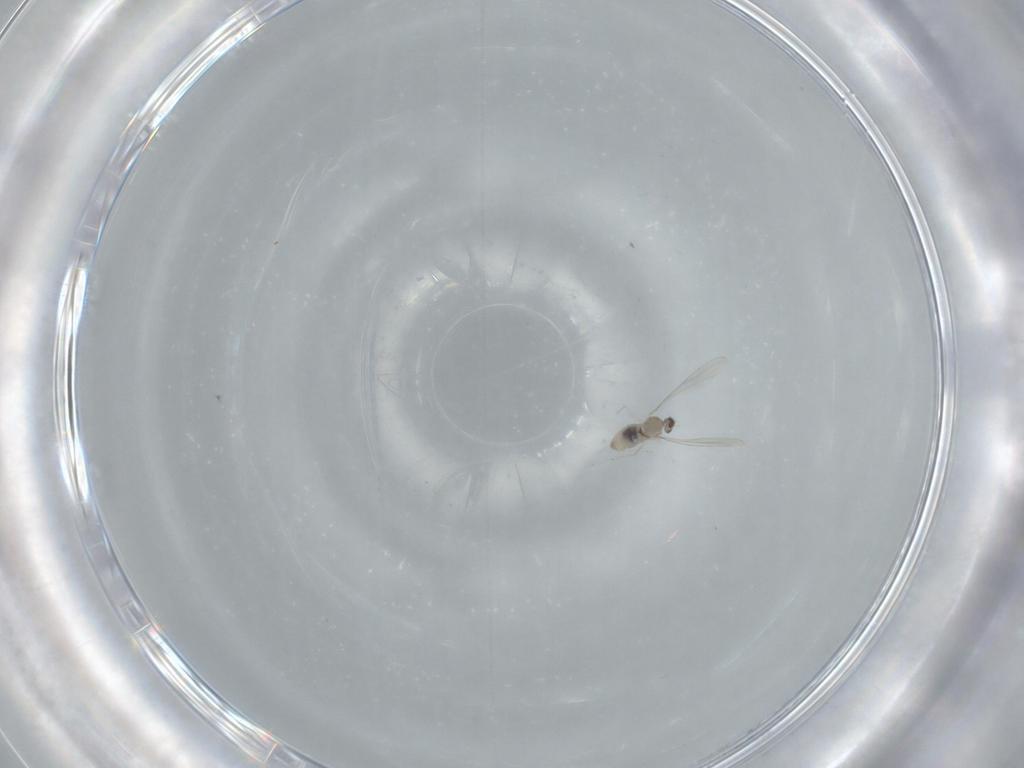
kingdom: Animalia
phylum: Arthropoda
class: Insecta
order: Diptera
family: Cecidomyiidae
